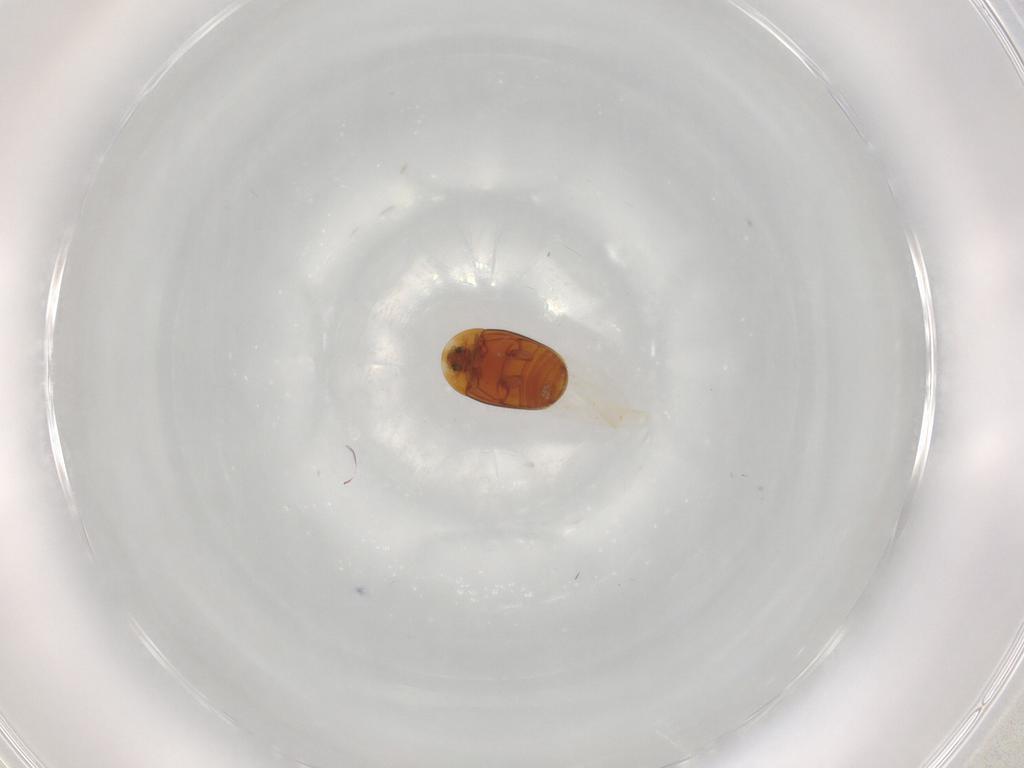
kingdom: Animalia
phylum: Arthropoda
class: Insecta
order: Coleoptera
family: Corylophidae
